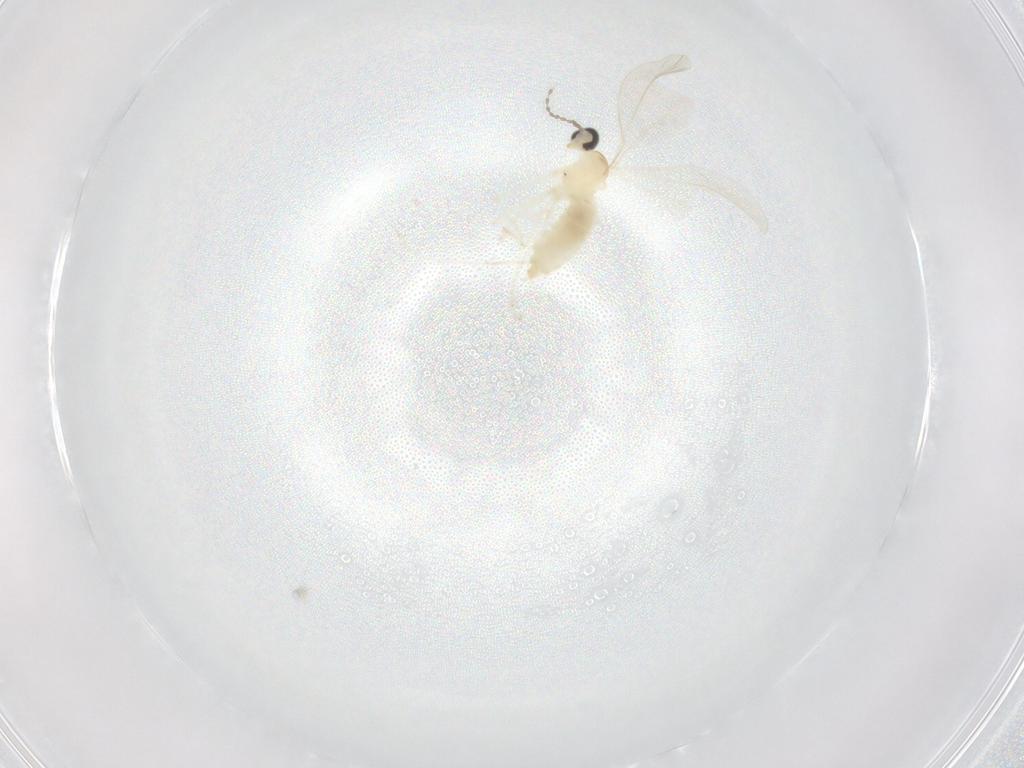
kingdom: Animalia
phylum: Arthropoda
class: Insecta
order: Diptera
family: Cecidomyiidae
